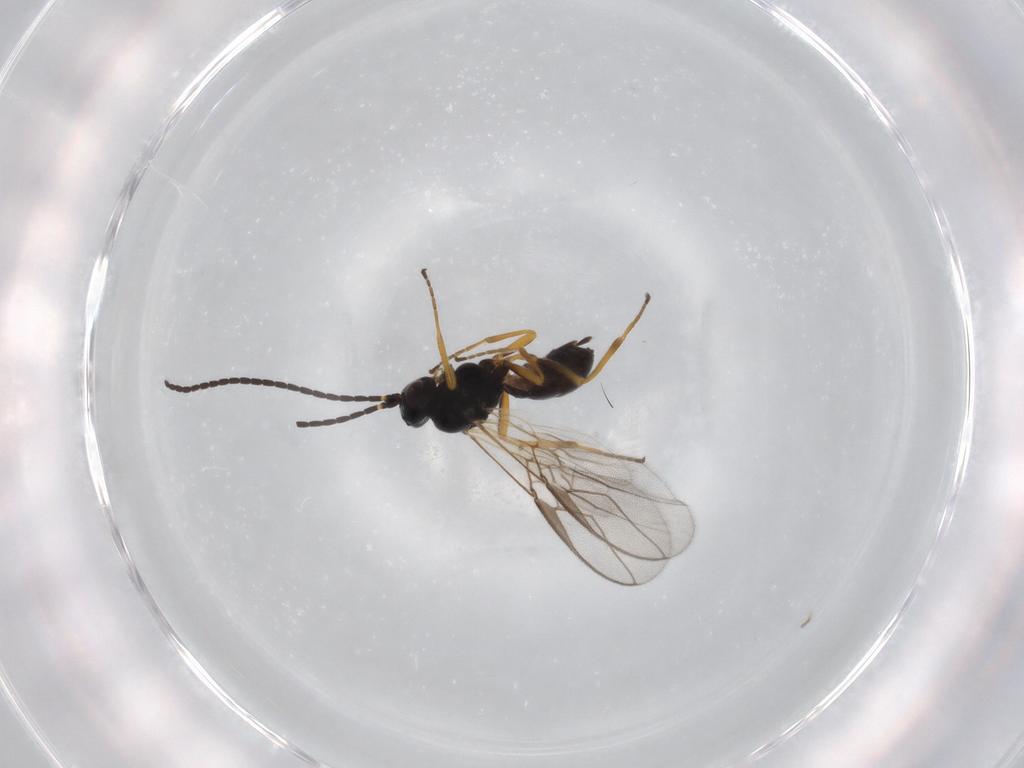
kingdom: Animalia
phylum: Arthropoda
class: Insecta
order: Hymenoptera
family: Braconidae
